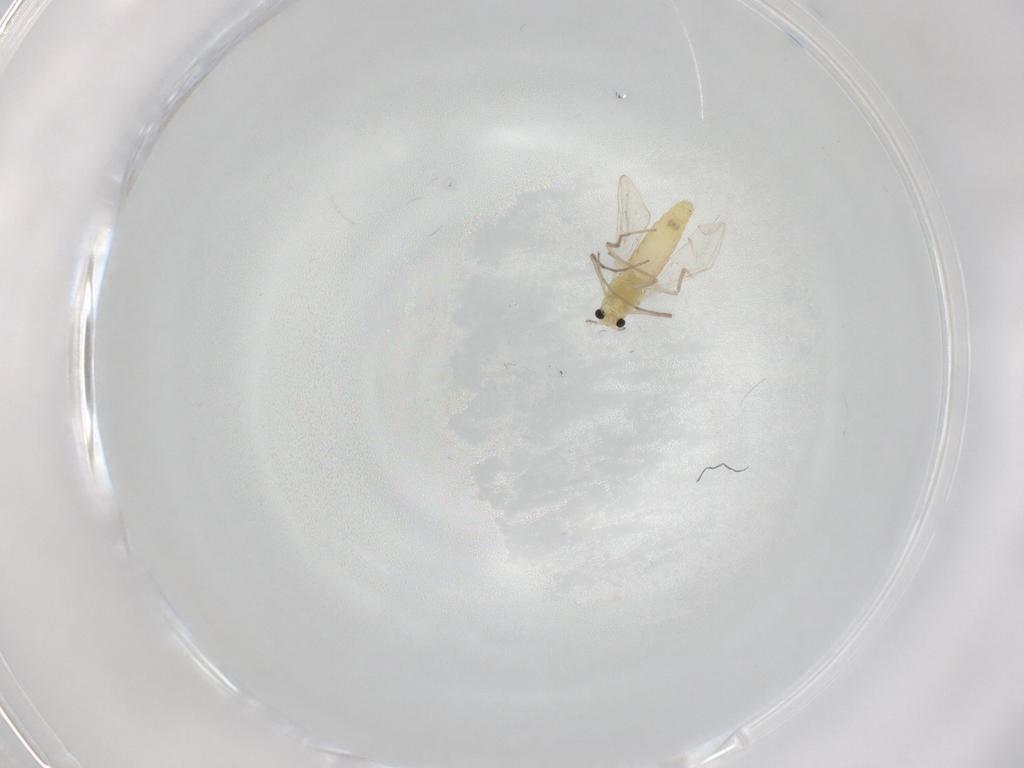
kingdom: Animalia
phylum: Arthropoda
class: Insecta
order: Diptera
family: Chironomidae
